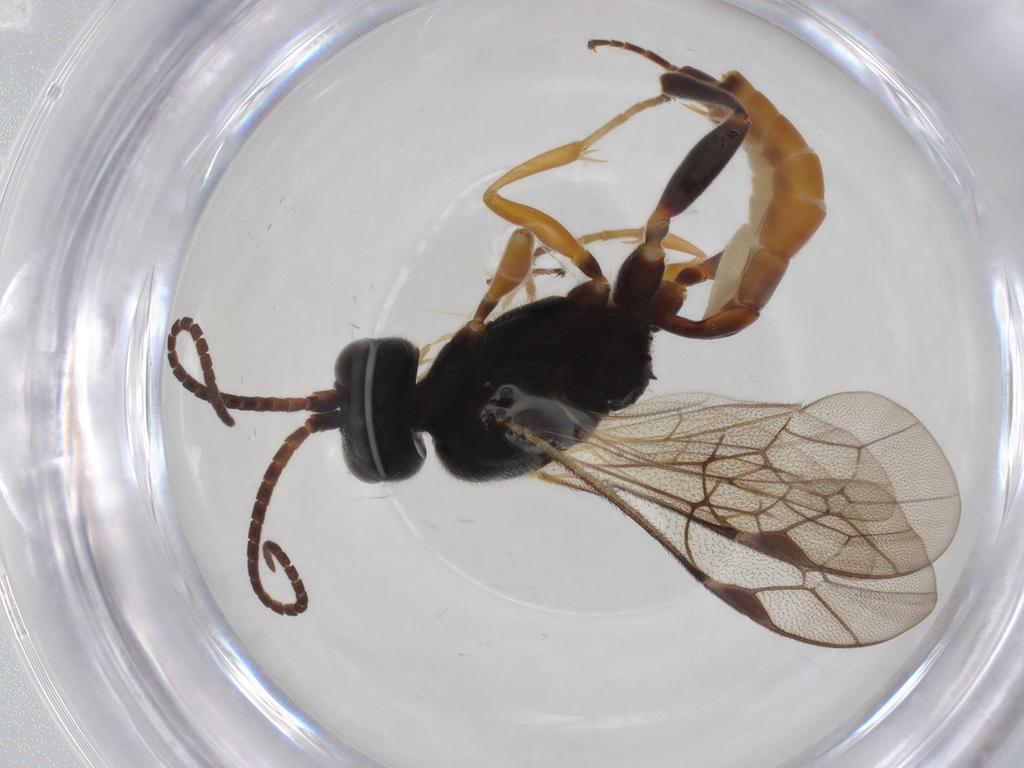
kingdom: Animalia
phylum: Arthropoda
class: Insecta
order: Hymenoptera
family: Ichneumonidae
